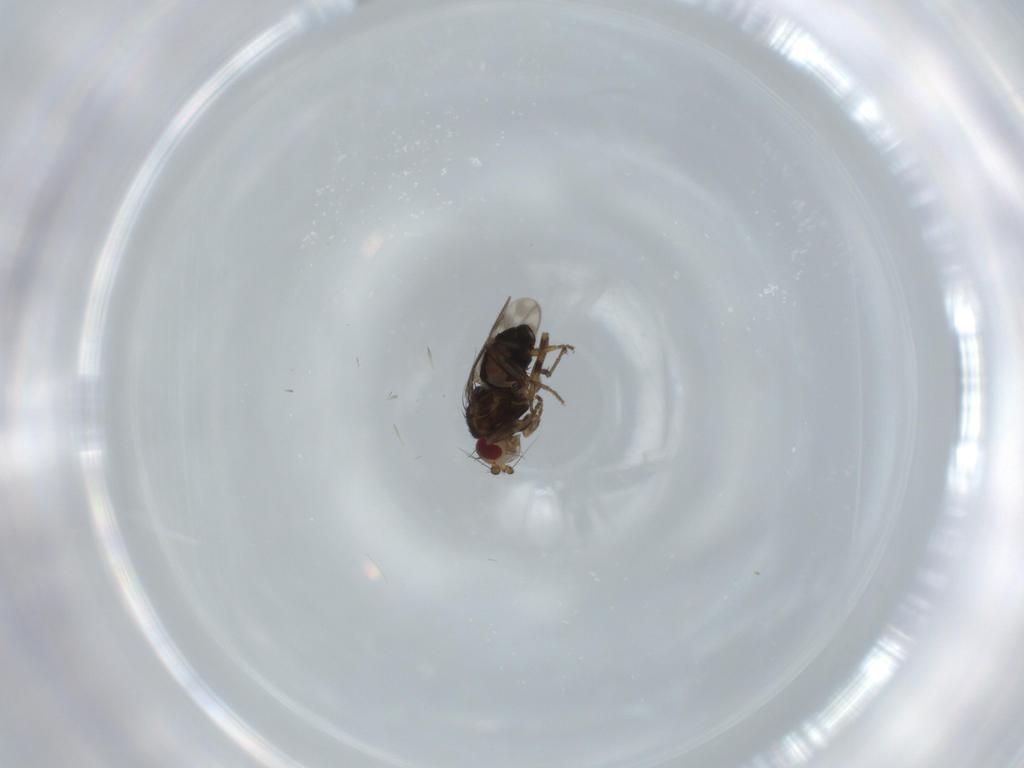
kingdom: Animalia
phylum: Arthropoda
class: Insecta
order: Diptera
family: Sphaeroceridae
